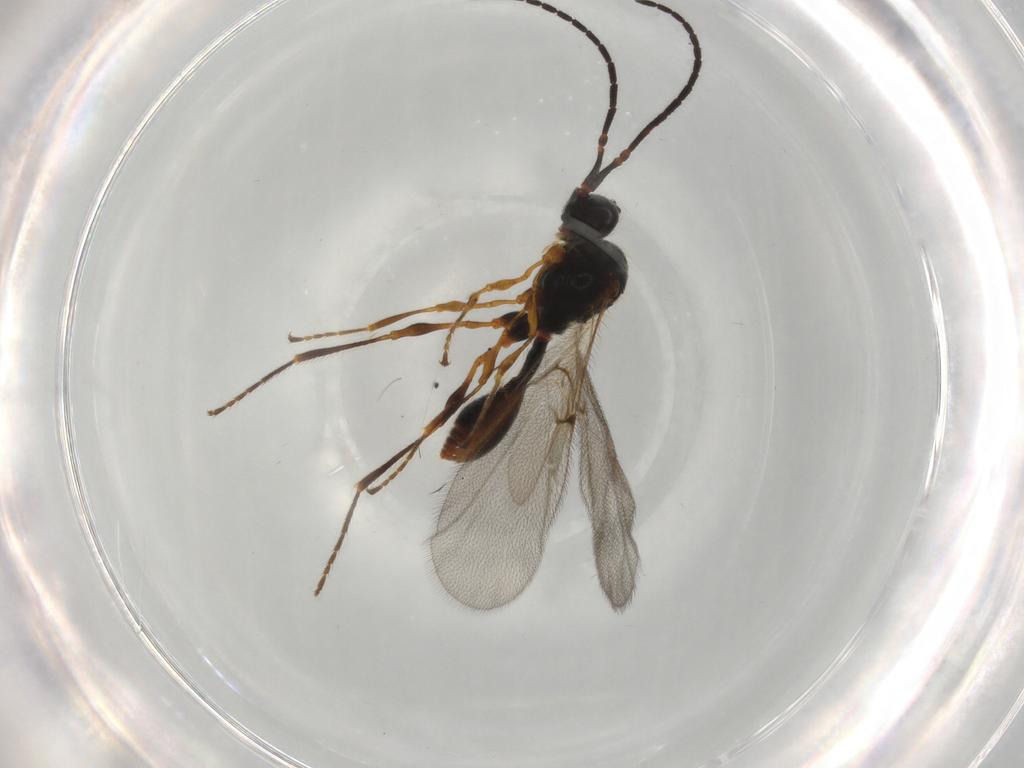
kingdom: Animalia
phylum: Arthropoda
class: Insecta
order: Hymenoptera
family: Diapriidae
